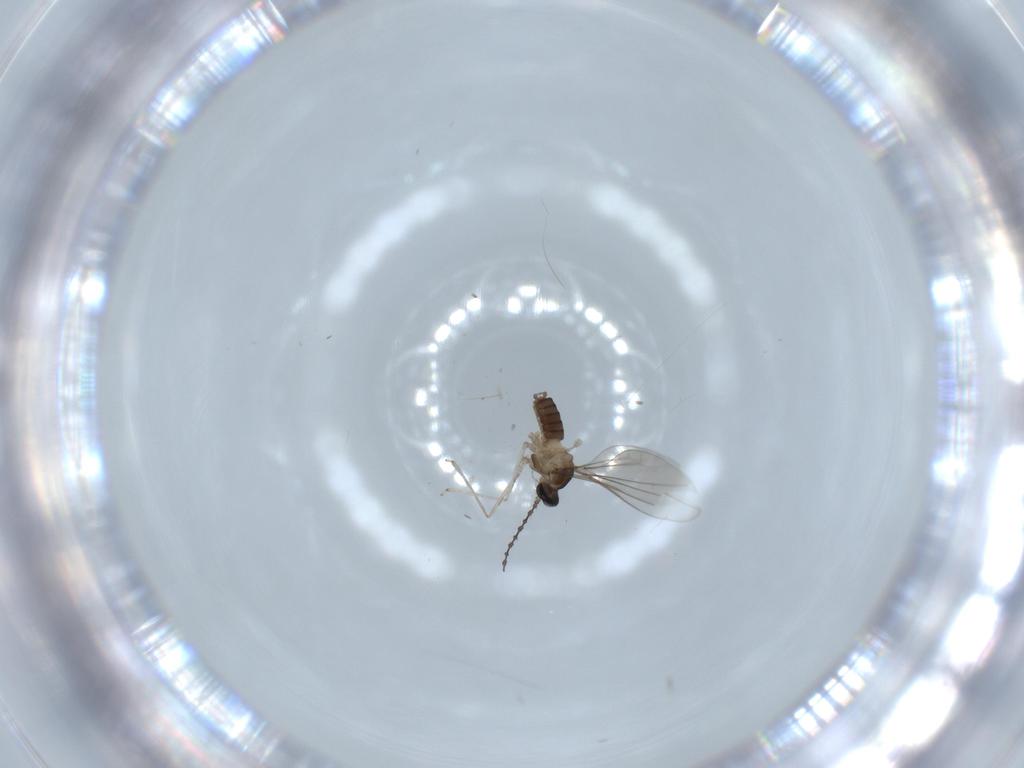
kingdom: Animalia
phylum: Arthropoda
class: Insecta
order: Diptera
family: Cecidomyiidae
